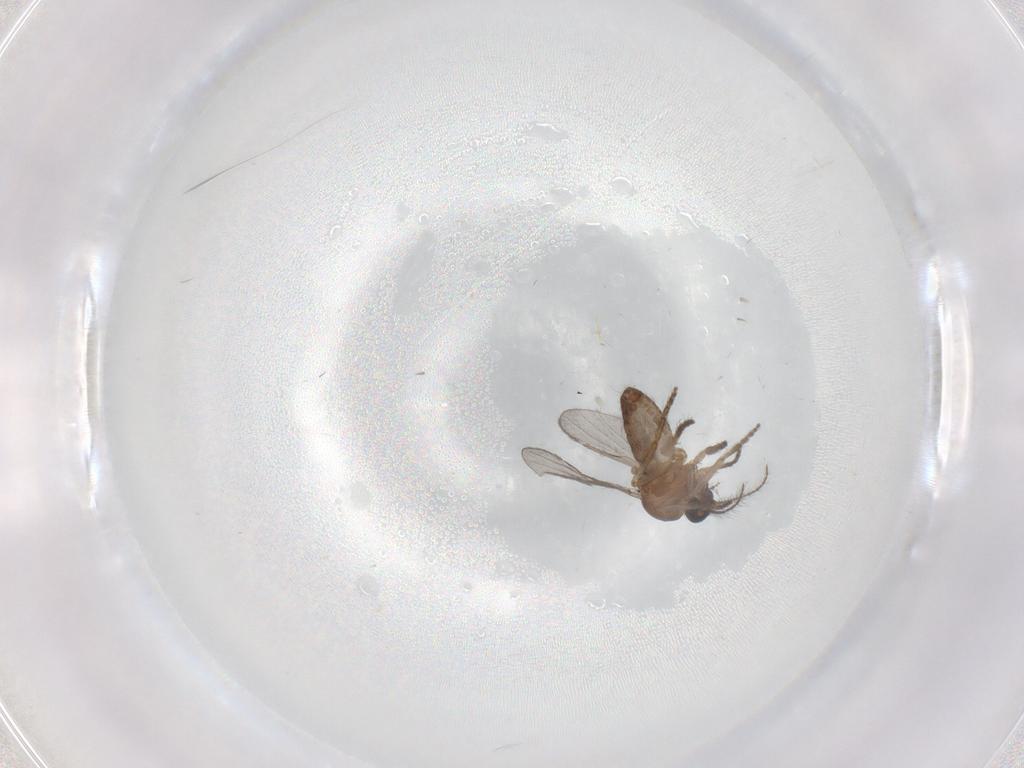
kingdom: Animalia
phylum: Arthropoda
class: Insecta
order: Diptera
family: Ceratopogonidae
